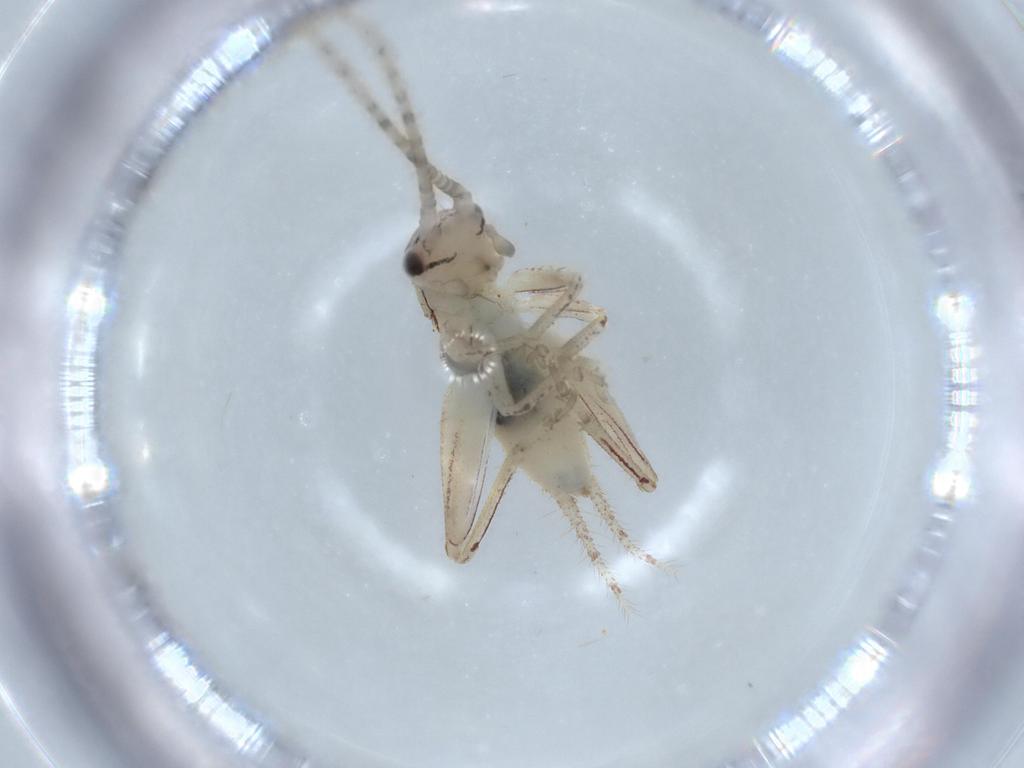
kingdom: Animalia
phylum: Arthropoda
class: Insecta
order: Orthoptera
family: Gryllidae
